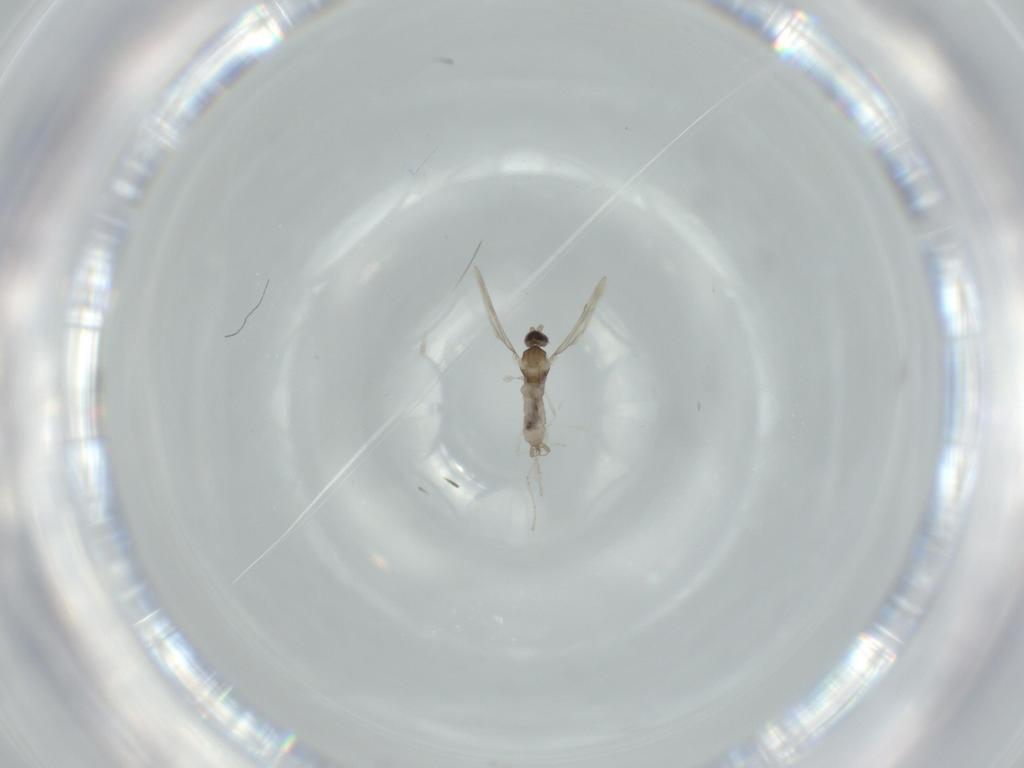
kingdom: Animalia
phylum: Arthropoda
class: Insecta
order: Diptera
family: Cecidomyiidae
